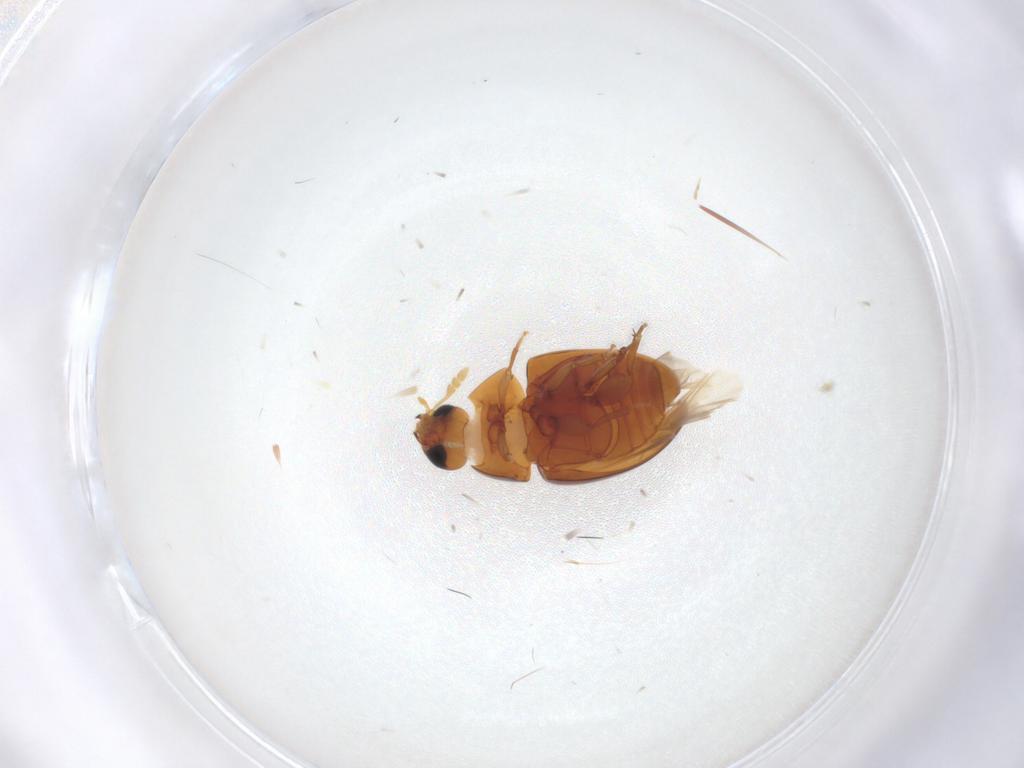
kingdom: Animalia
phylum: Arthropoda
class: Insecta
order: Coleoptera
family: Phalacridae
